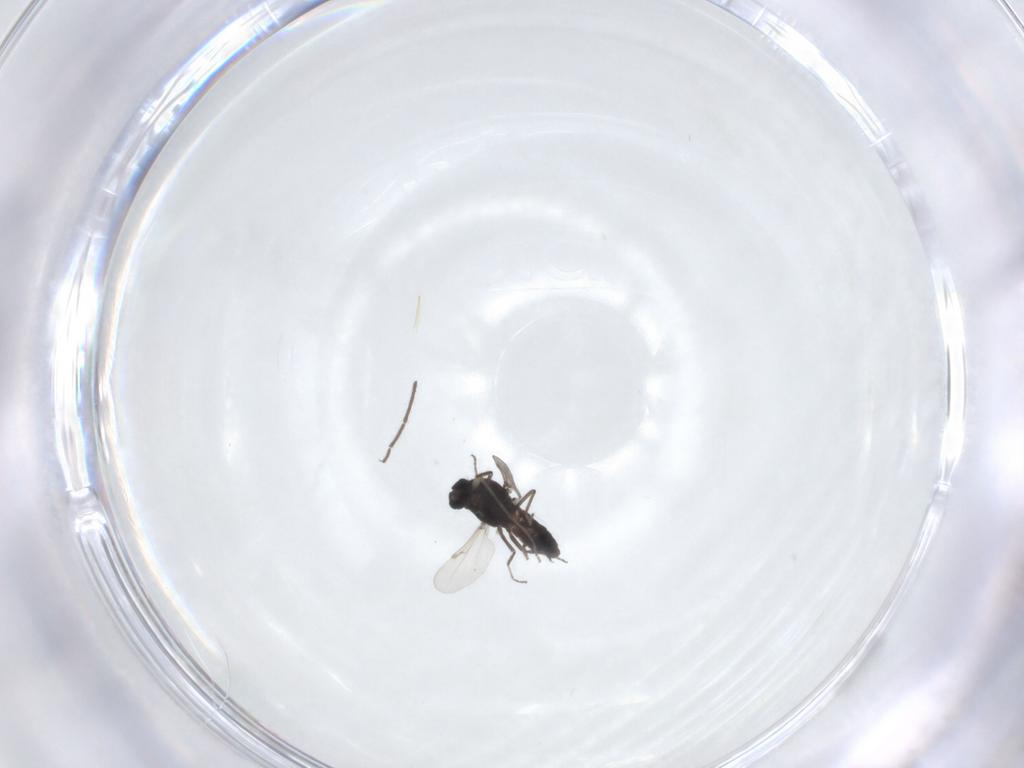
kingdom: Animalia
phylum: Arthropoda
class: Insecta
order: Diptera
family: Ceratopogonidae
